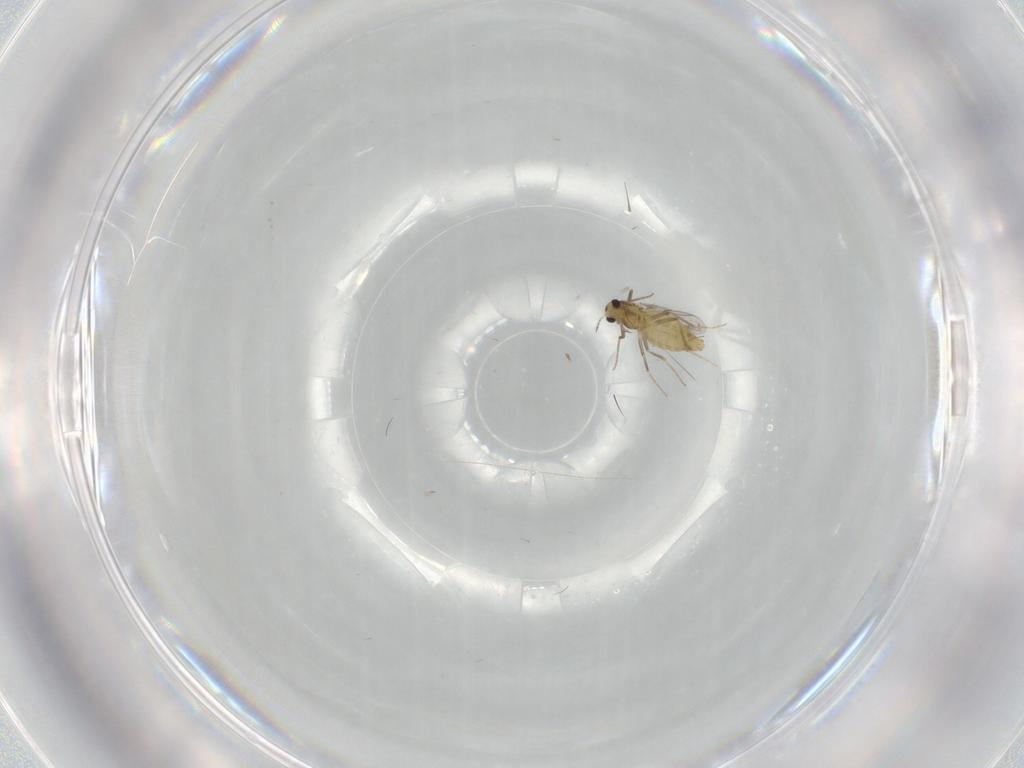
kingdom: Animalia
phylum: Arthropoda
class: Insecta
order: Diptera
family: Chironomidae
